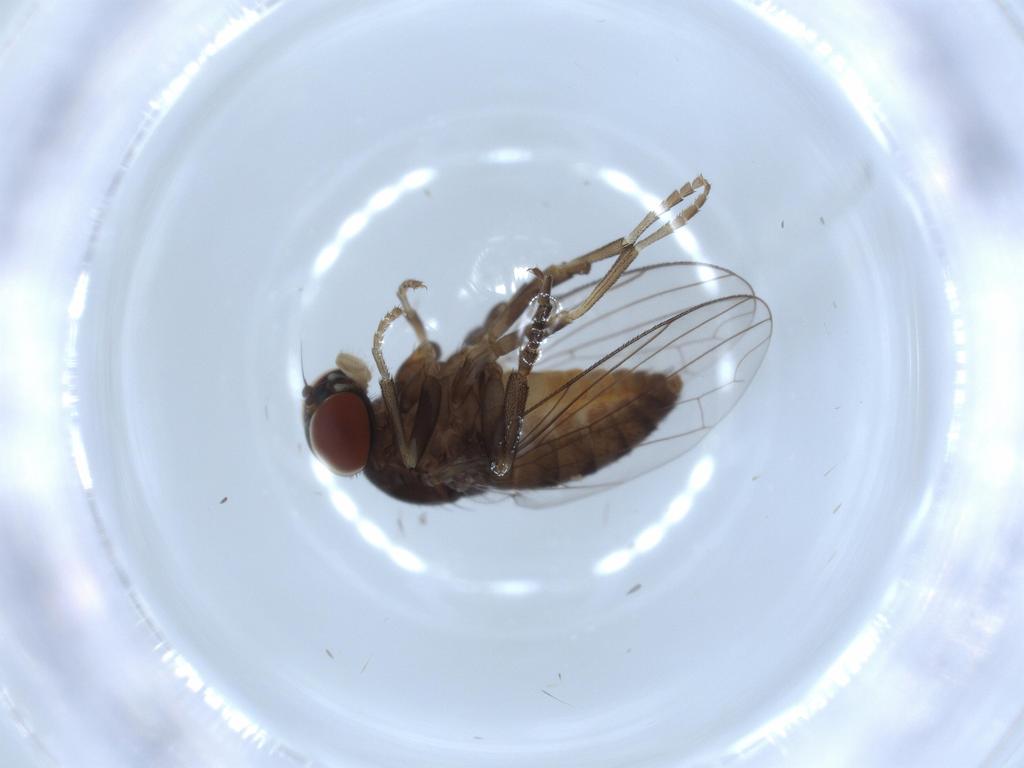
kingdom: Animalia
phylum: Arthropoda
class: Insecta
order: Diptera
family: Platypezidae
